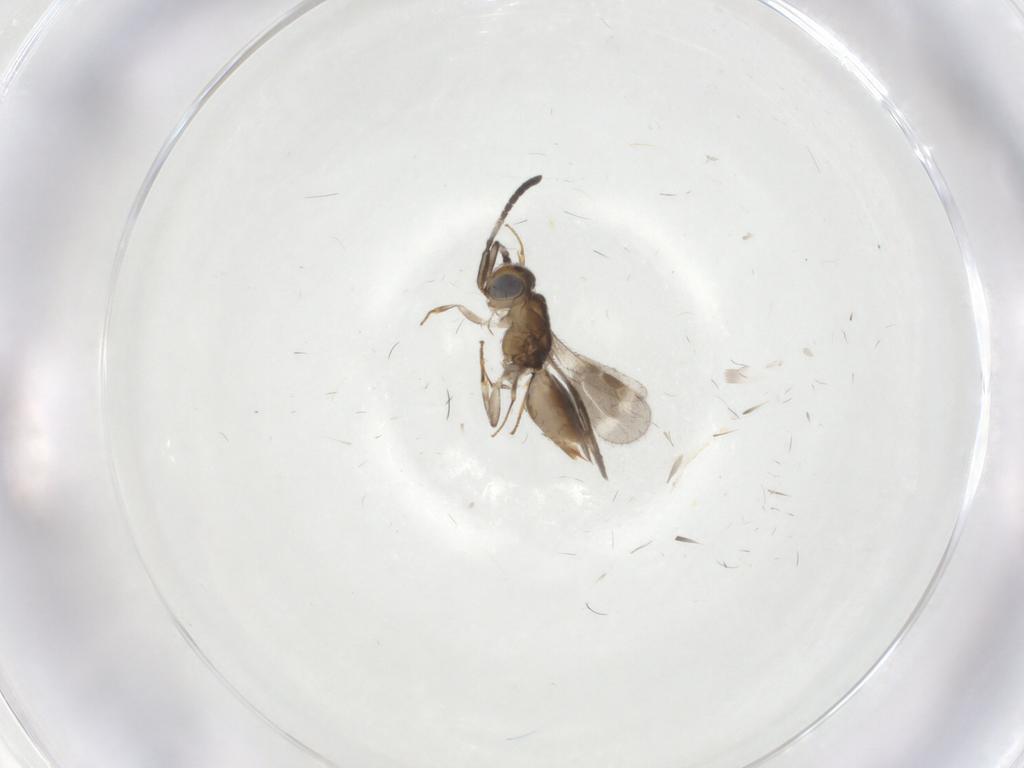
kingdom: Animalia
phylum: Arthropoda
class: Insecta
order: Hymenoptera
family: Megaspilidae
